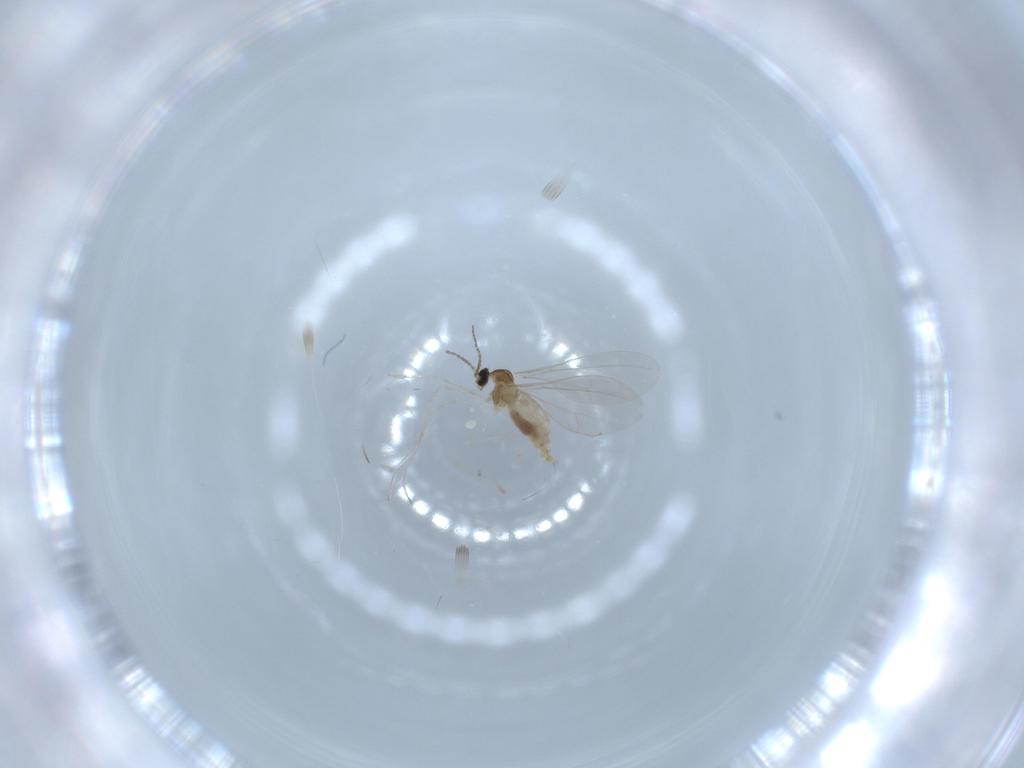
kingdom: Animalia
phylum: Arthropoda
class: Insecta
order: Diptera
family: Cecidomyiidae
